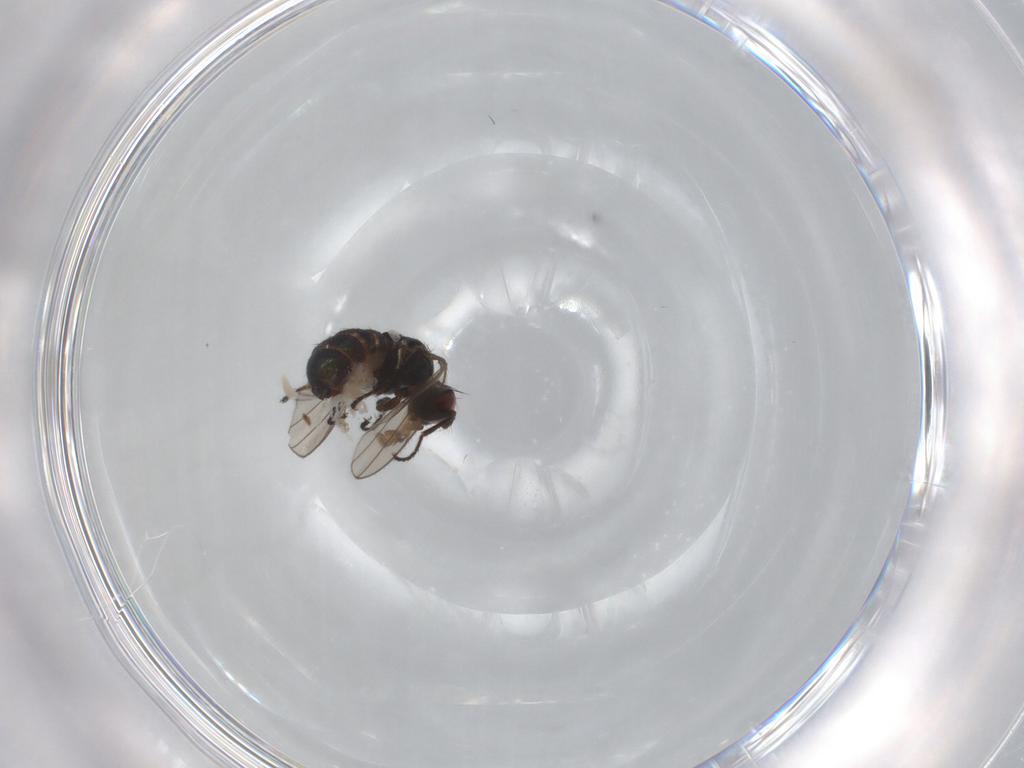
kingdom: Animalia
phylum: Arthropoda
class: Insecta
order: Diptera
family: Ephydridae
